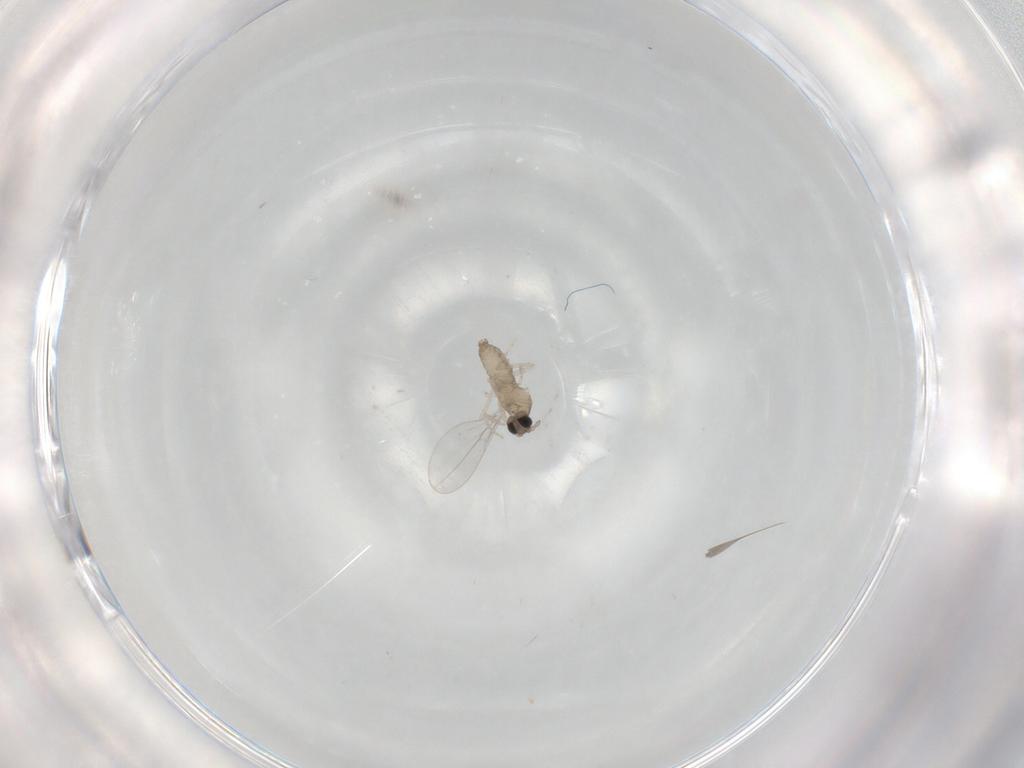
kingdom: Animalia
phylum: Arthropoda
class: Insecta
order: Diptera
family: Cecidomyiidae
